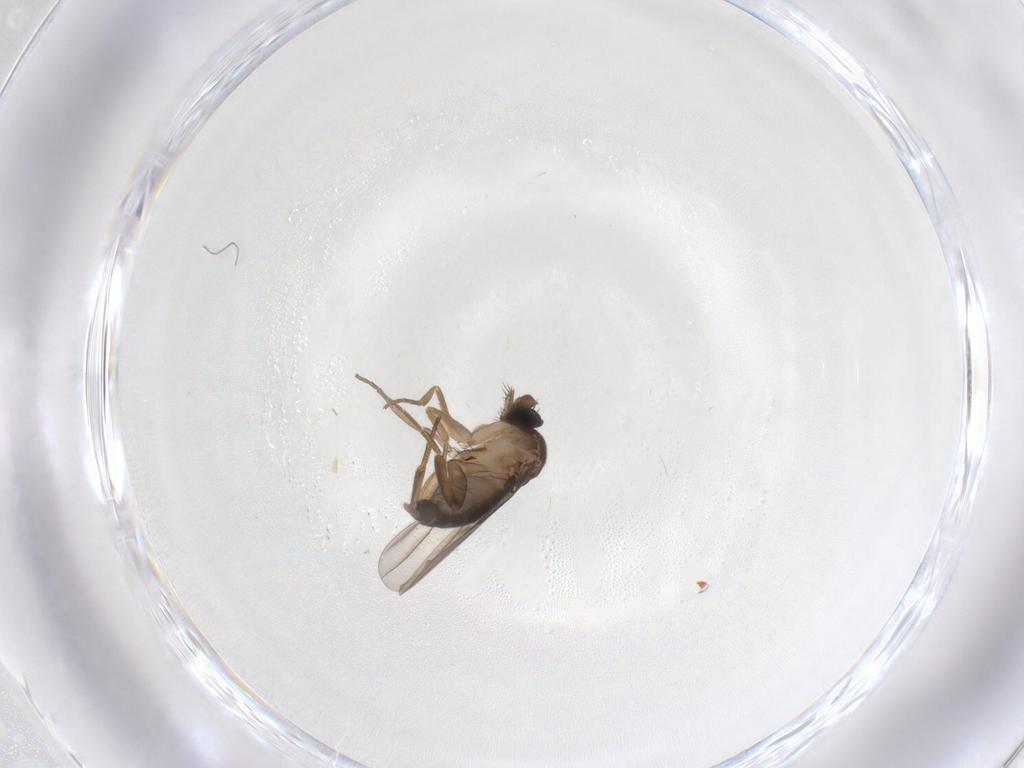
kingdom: Animalia
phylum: Arthropoda
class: Insecta
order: Diptera
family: Phoridae
